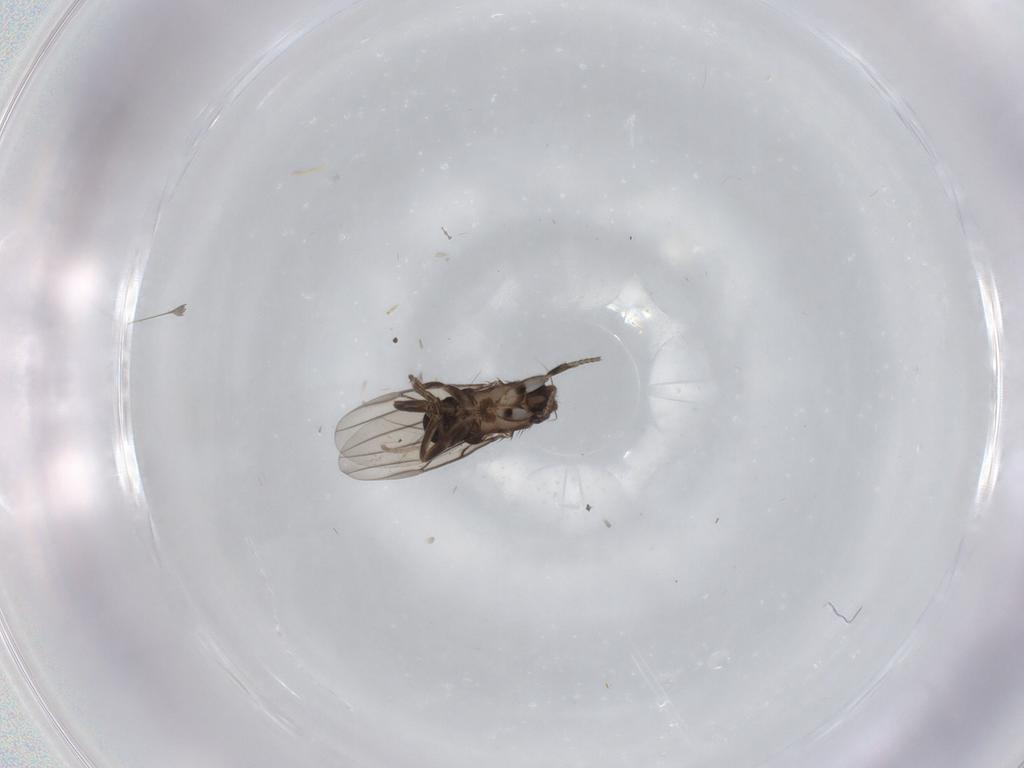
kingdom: Animalia
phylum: Arthropoda
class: Insecta
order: Diptera
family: Phoridae
